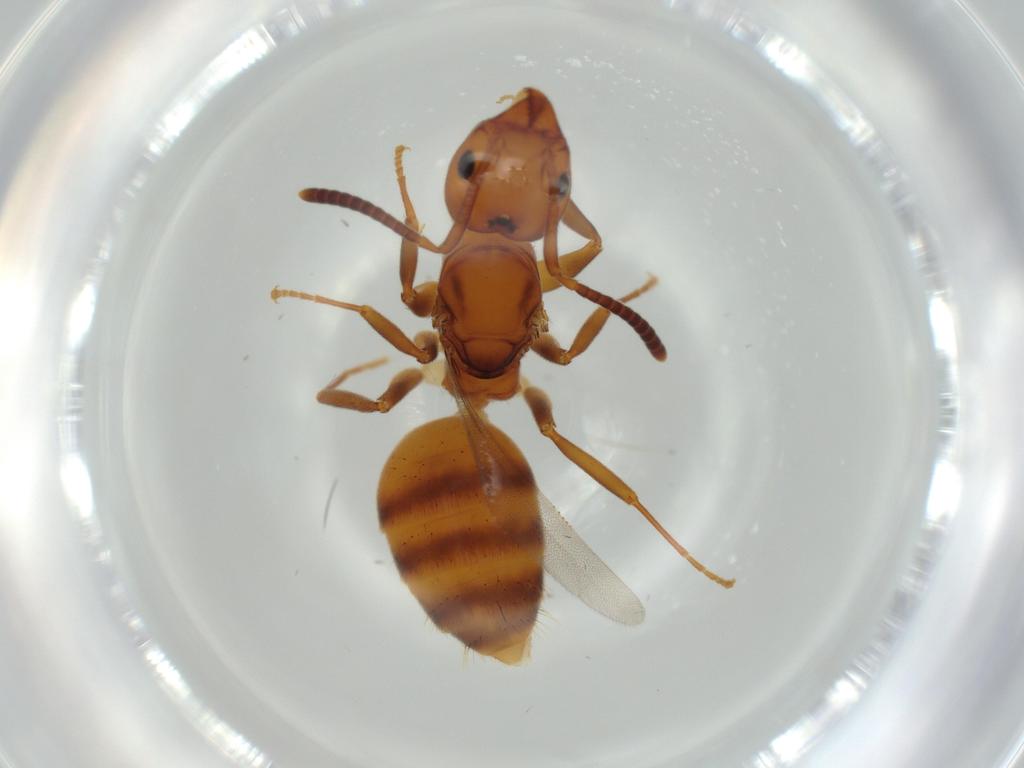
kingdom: Animalia
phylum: Arthropoda
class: Insecta
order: Hymenoptera
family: Formicidae
